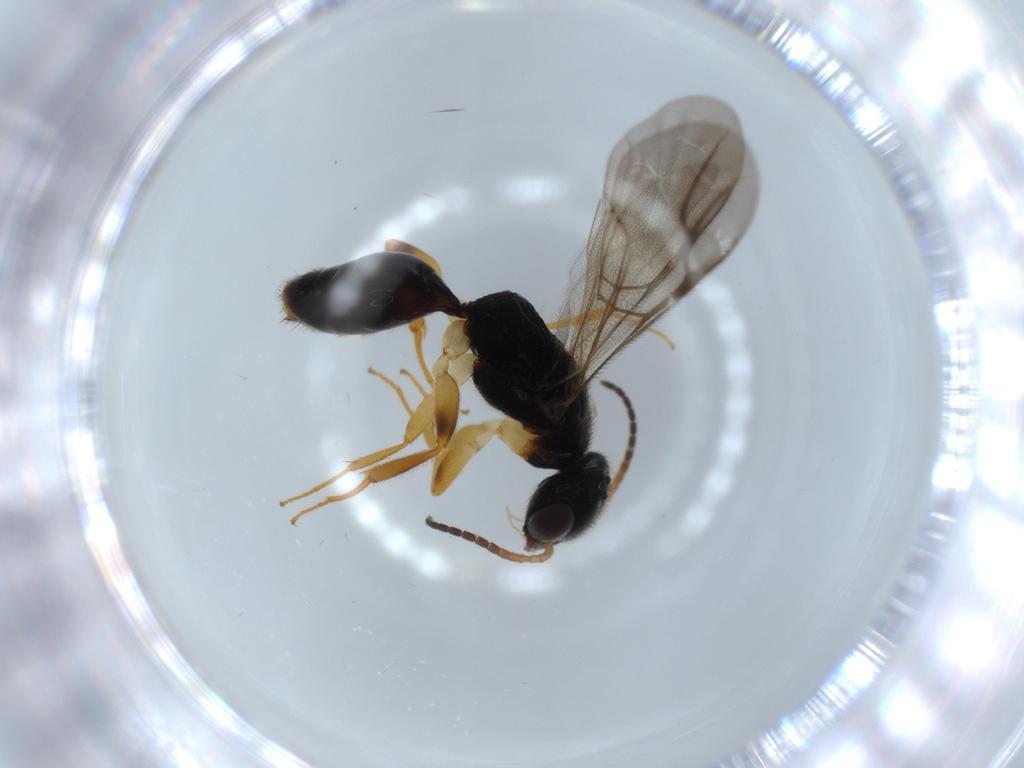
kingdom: Animalia
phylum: Arthropoda
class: Insecta
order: Hymenoptera
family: Bethylidae
